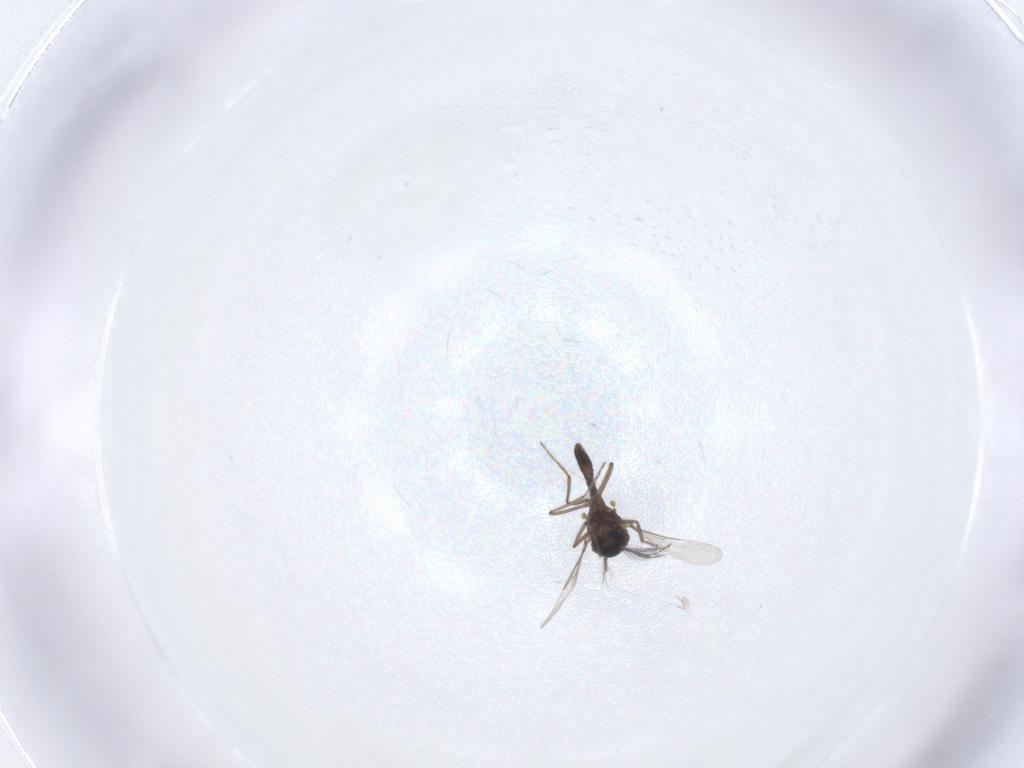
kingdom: Animalia
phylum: Arthropoda
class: Insecta
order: Diptera
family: Ceratopogonidae
